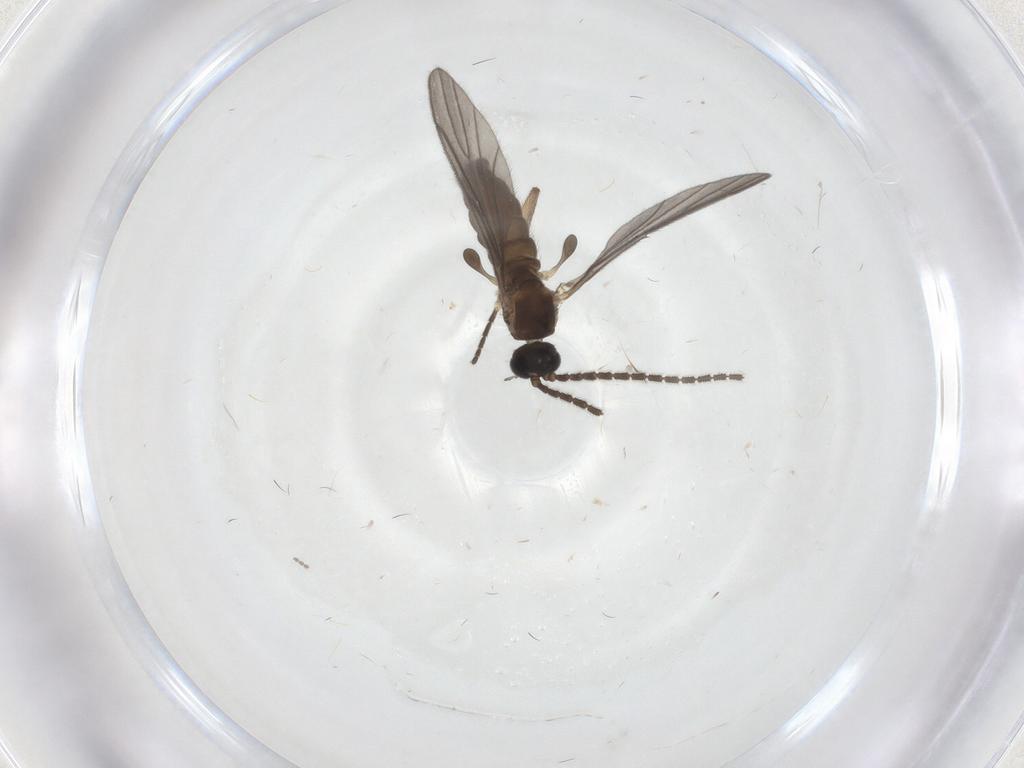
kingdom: Animalia
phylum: Arthropoda
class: Insecta
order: Diptera
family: Sciaridae
